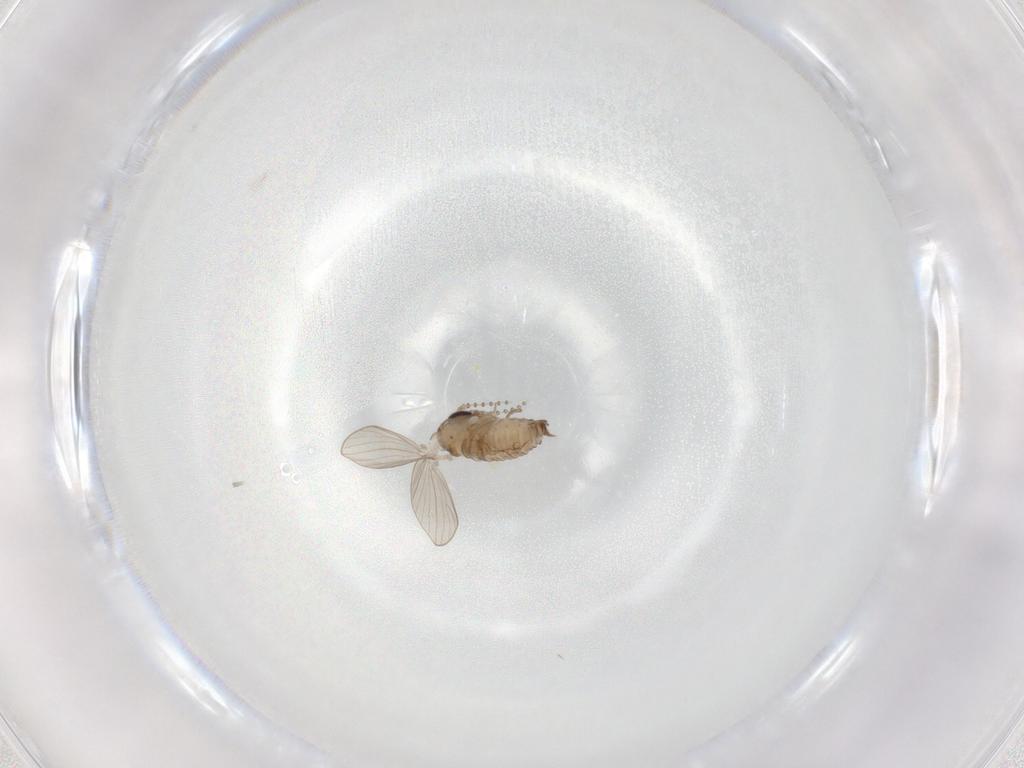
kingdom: Animalia
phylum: Arthropoda
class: Insecta
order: Diptera
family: Psychodidae
